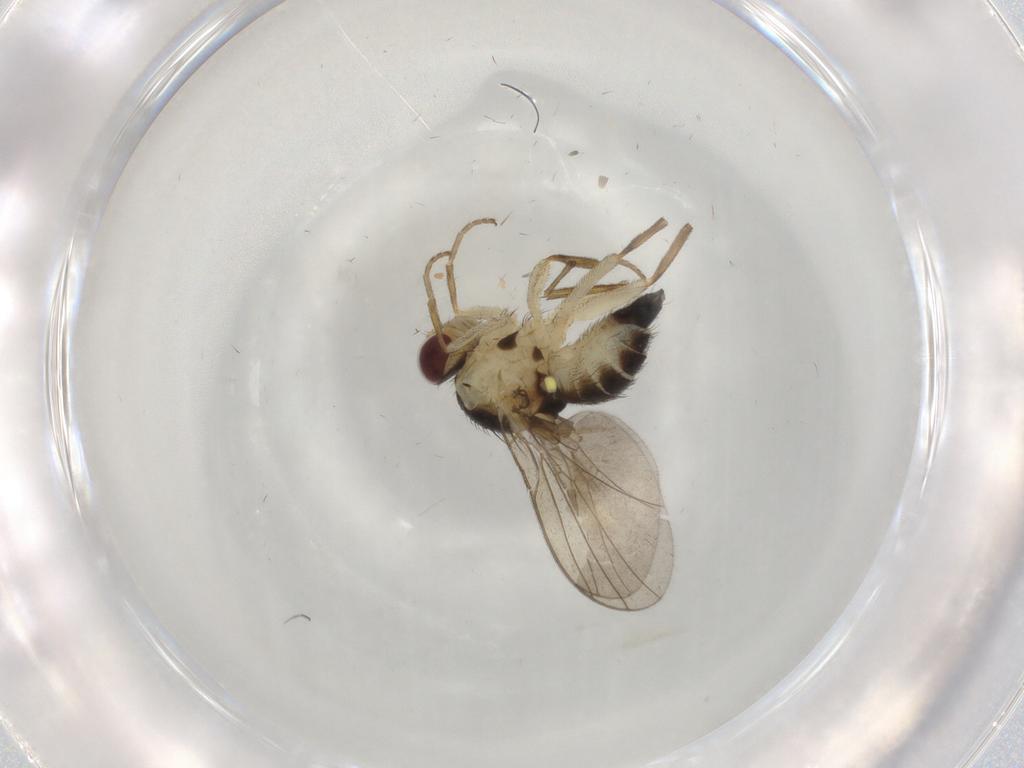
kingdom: Animalia
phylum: Arthropoda
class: Insecta
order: Diptera
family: Agromyzidae
